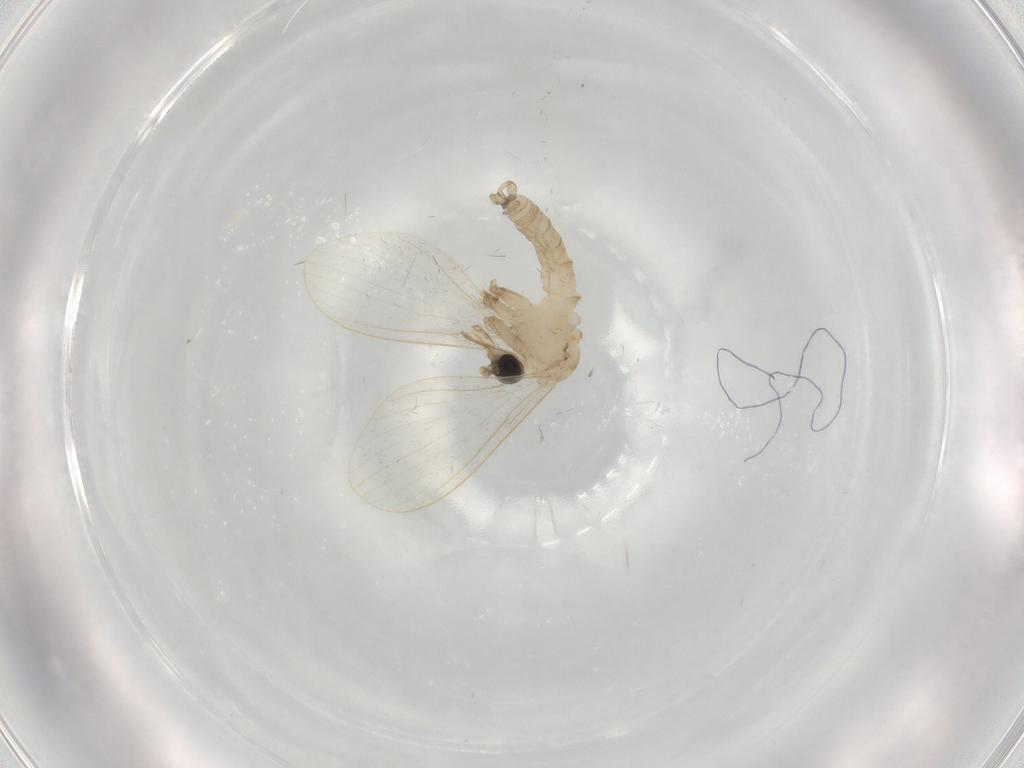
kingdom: Animalia
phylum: Arthropoda
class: Insecta
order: Diptera
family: Psychodidae
